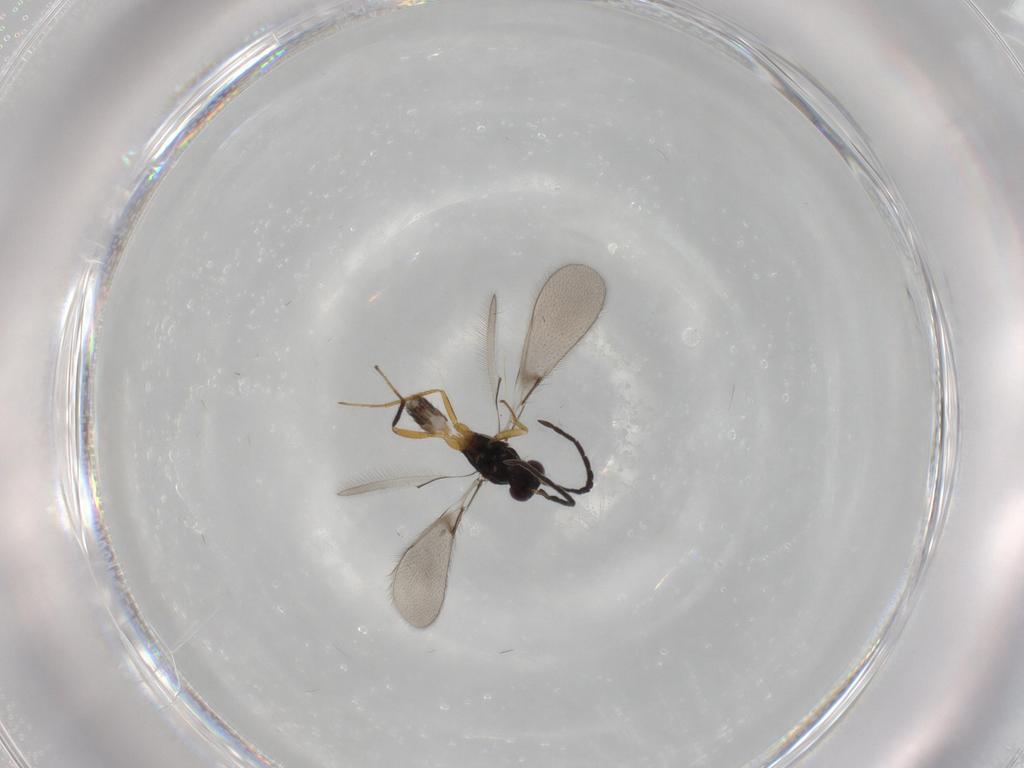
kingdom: Animalia
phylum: Arthropoda
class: Insecta
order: Hymenoptera
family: Mymaridae
